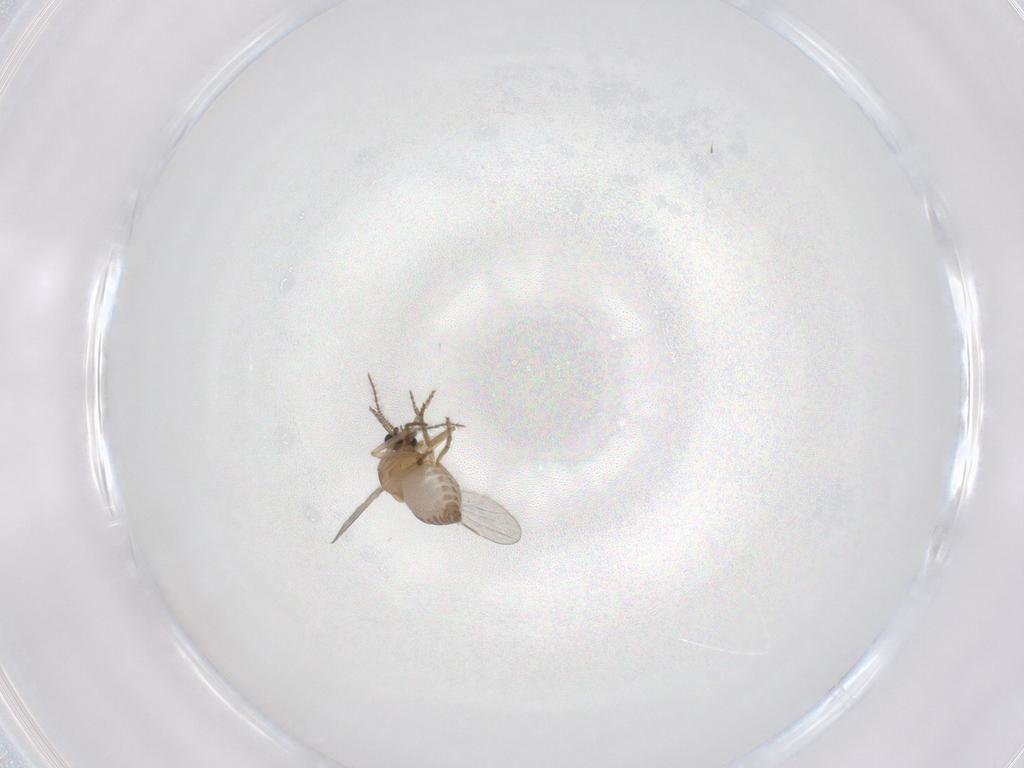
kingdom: Animalia
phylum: Arthropoda
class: Insecta
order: Diptera
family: Ceratopogonidae
